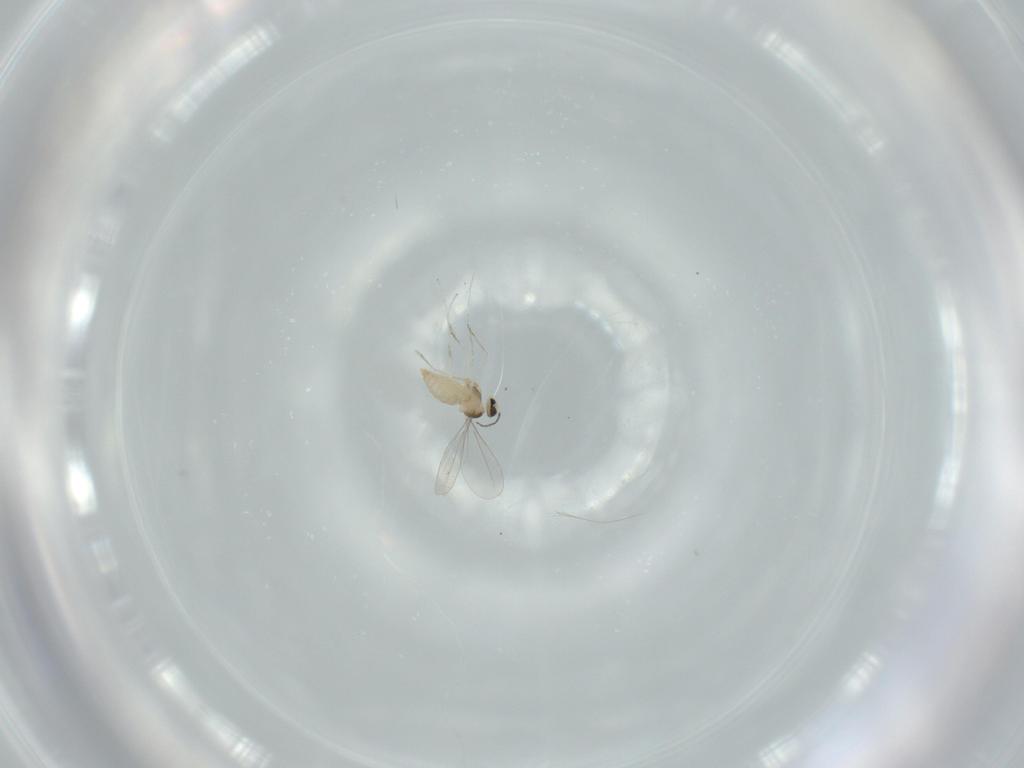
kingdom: Animalia
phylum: Arthropoda
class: Insecta
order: Diptera
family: Cecidomyiidae
